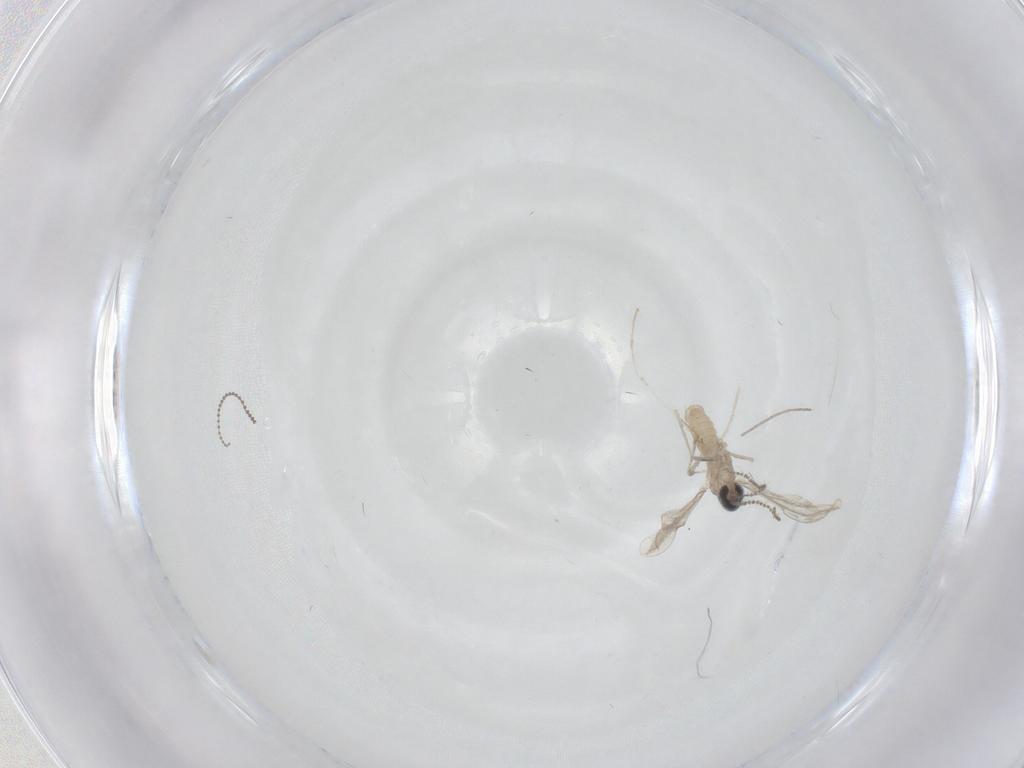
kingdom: Animalia
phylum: Arthropoda
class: Insecta
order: Diptera
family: Cecidomyiidae
